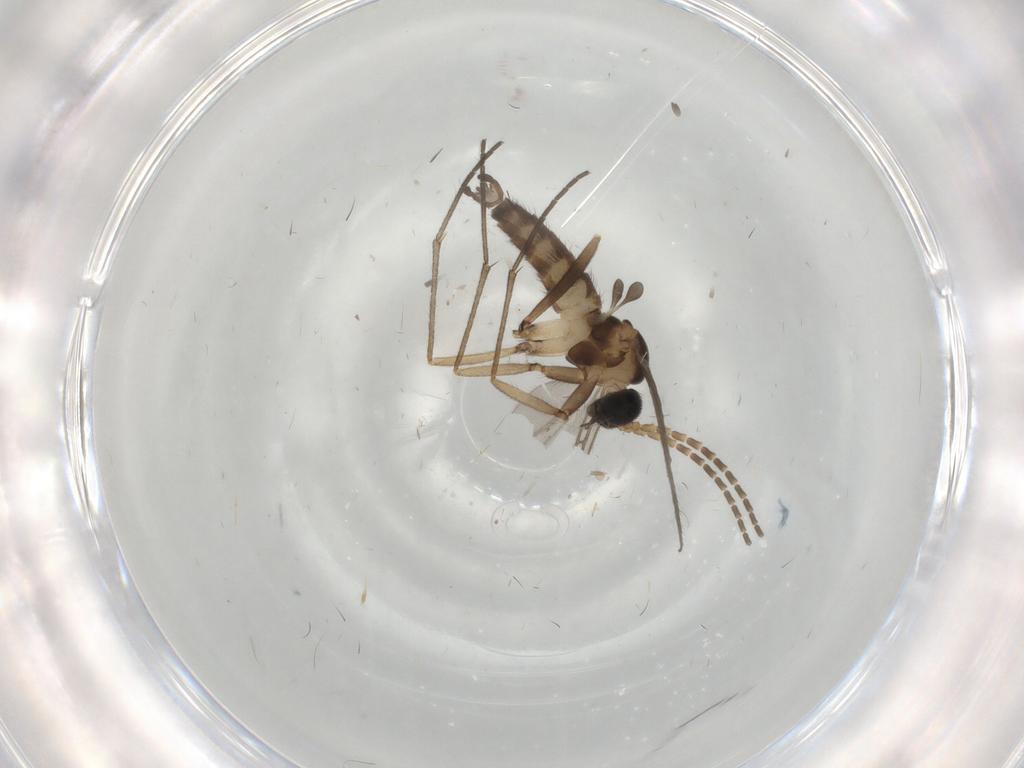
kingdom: Animalia
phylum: Arthropoda
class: Insecta
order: Diptera
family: Sciaridae
